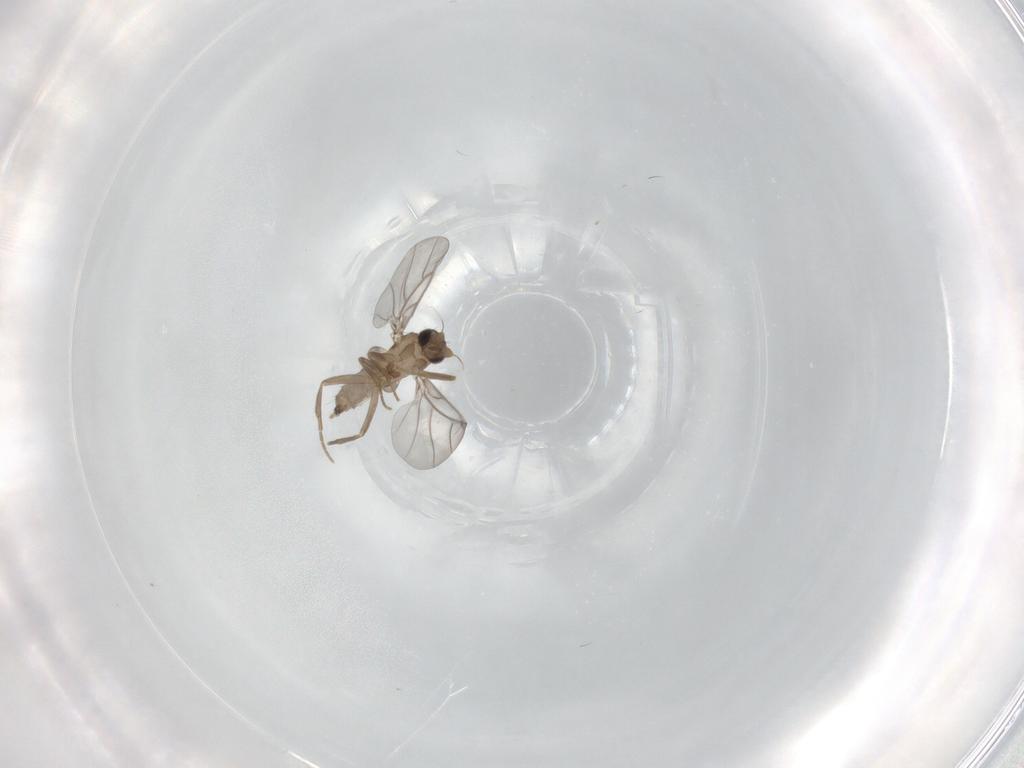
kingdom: Animalia
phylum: Arthropoda
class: Insecta
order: Diptera
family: Cecidomyiidae
